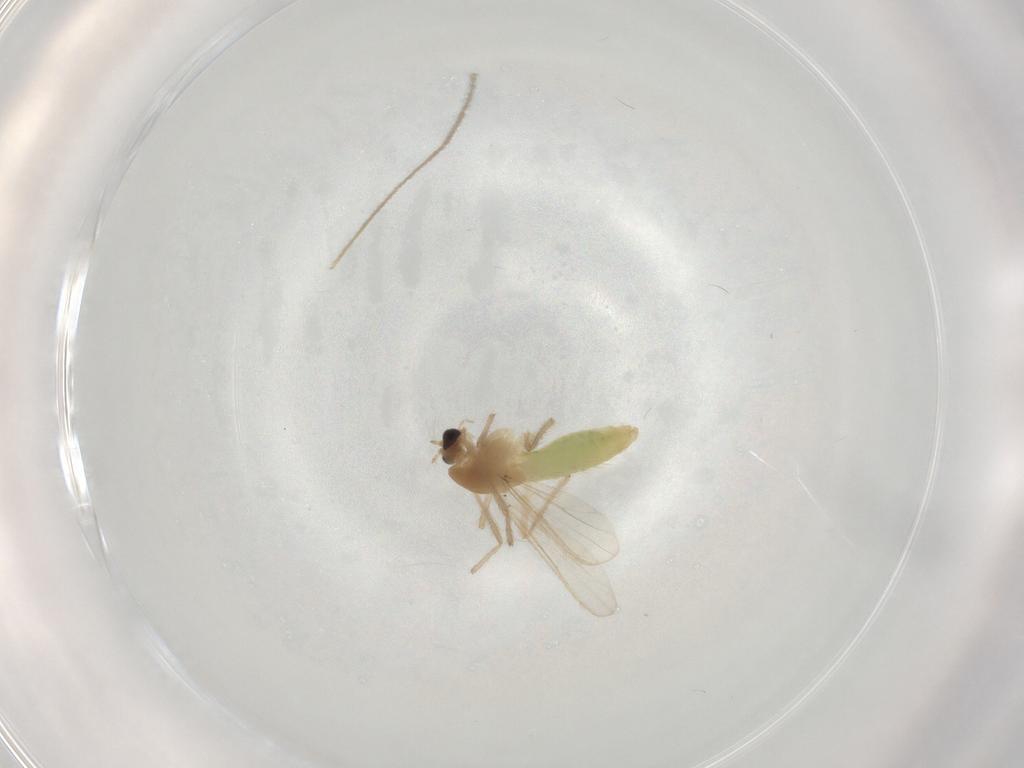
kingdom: Animalia
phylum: Arthropoda
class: Insecta
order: Diptera
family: Chironomidae
